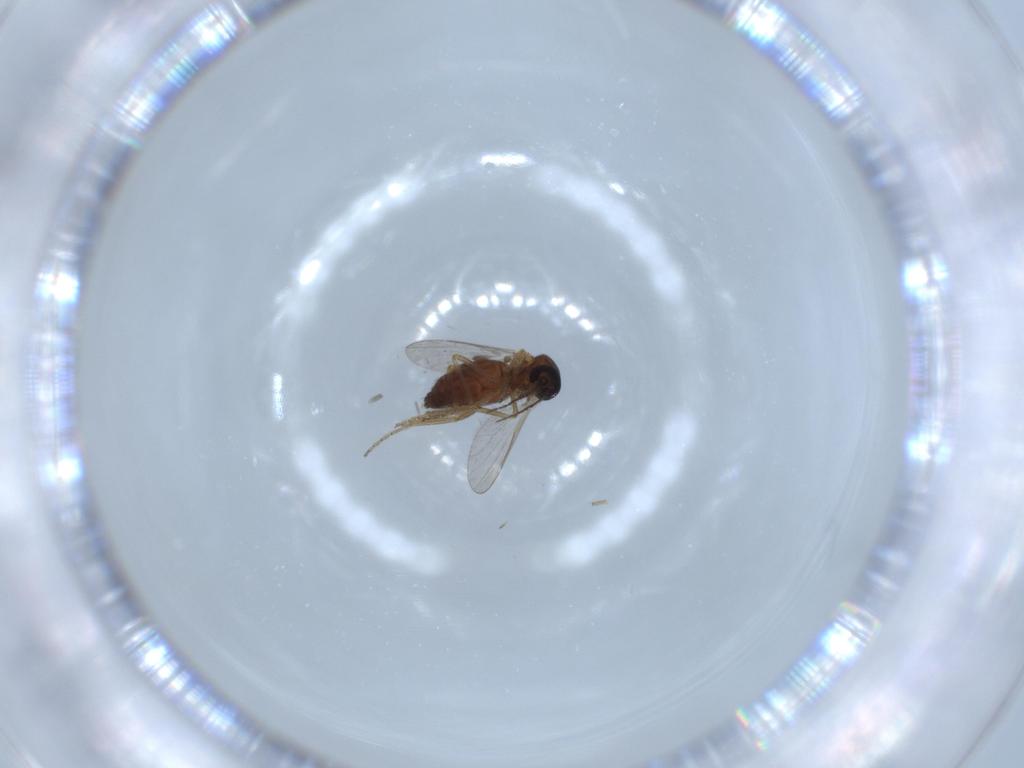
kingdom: Animalia
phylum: Arthropoda
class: Insecta
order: Diptera
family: Ceratopogonidae
